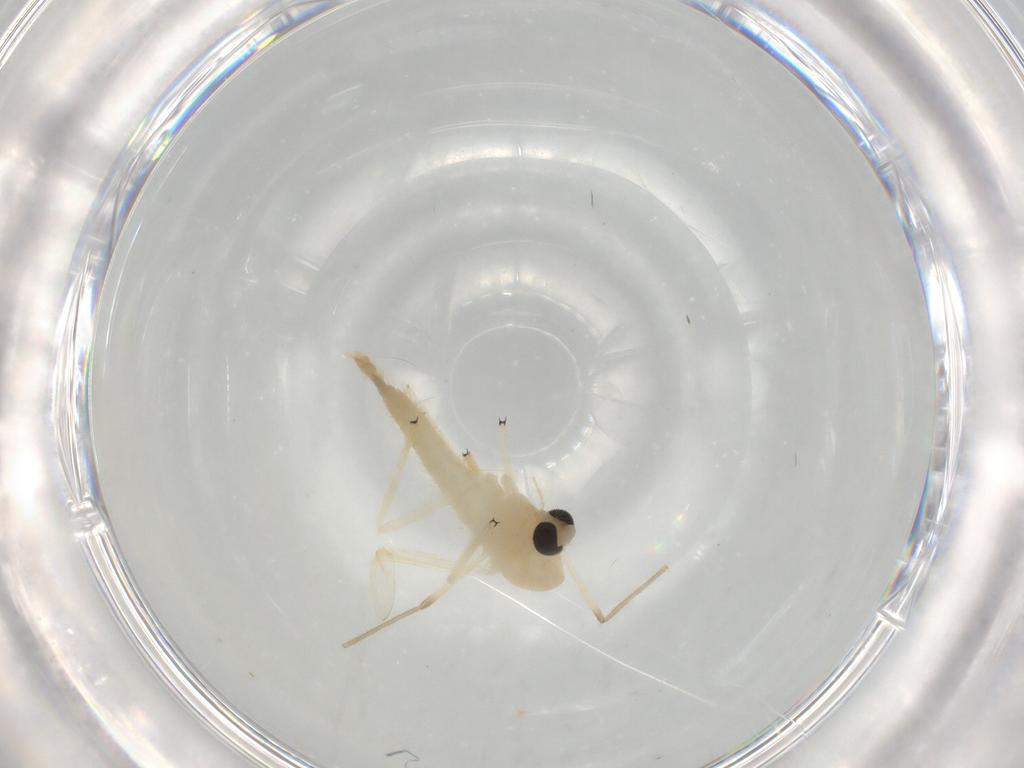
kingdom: Animalia
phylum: Arthropoda
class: Insecta
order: Diptera
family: Chironomidae
